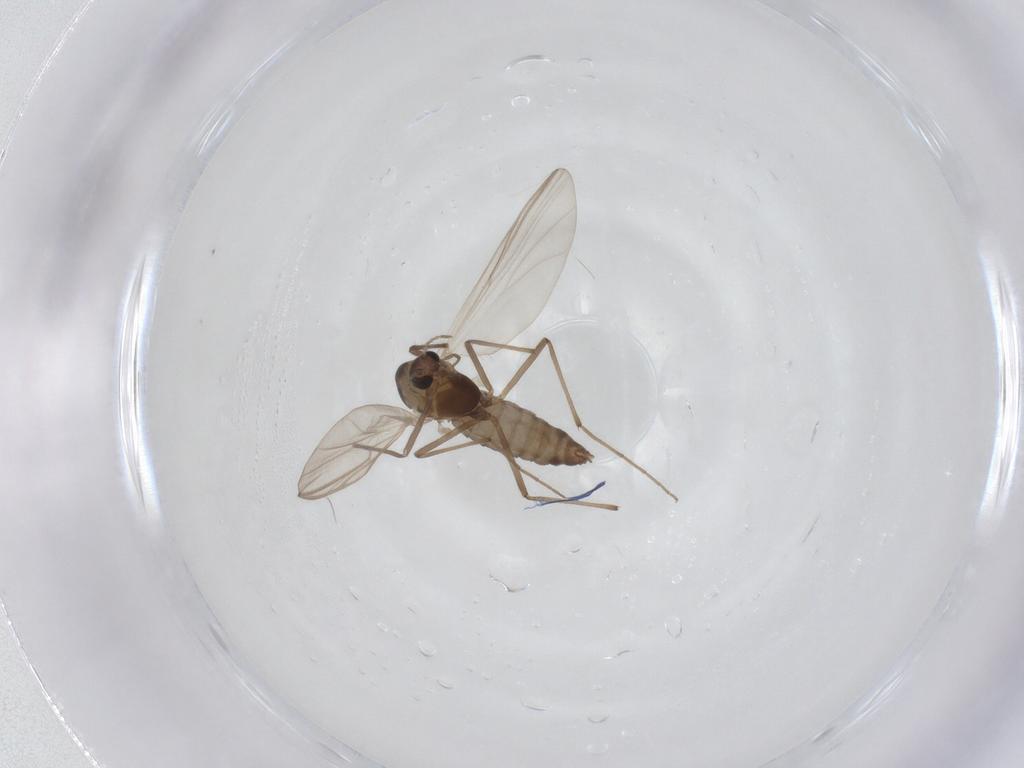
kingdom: Animalia
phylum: Arthropoda
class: Insecta
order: Diptera
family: Chironomidae
